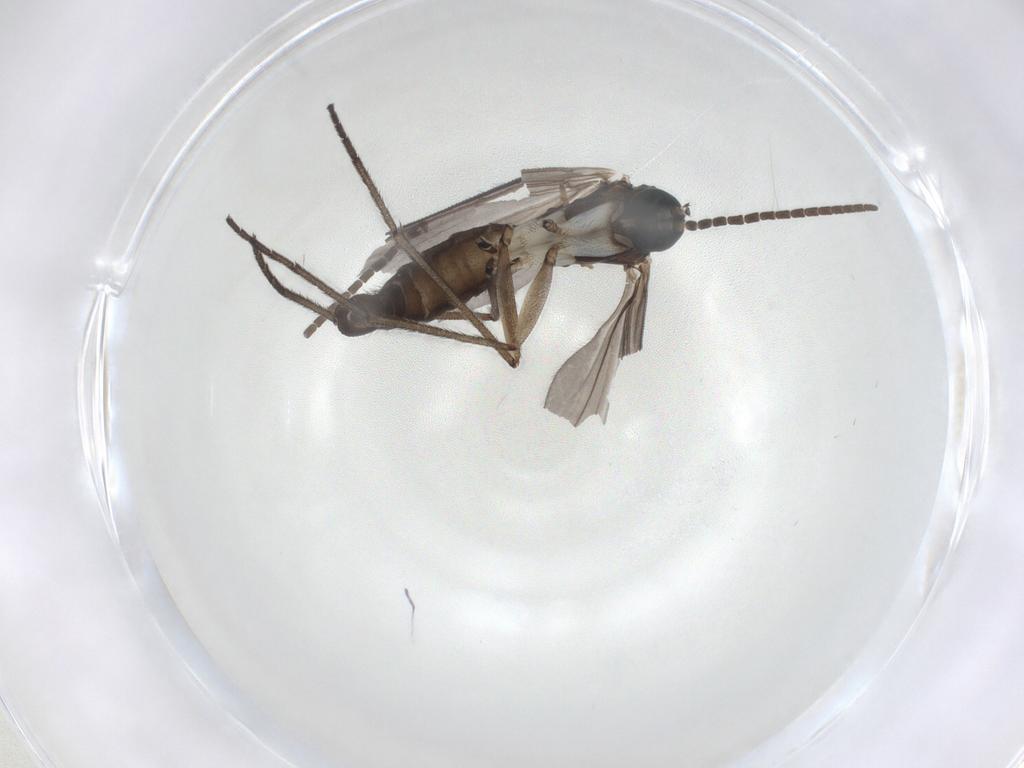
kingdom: Animalia
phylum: Arthropoda
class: Insecta
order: Diptera
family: Sciaridae
